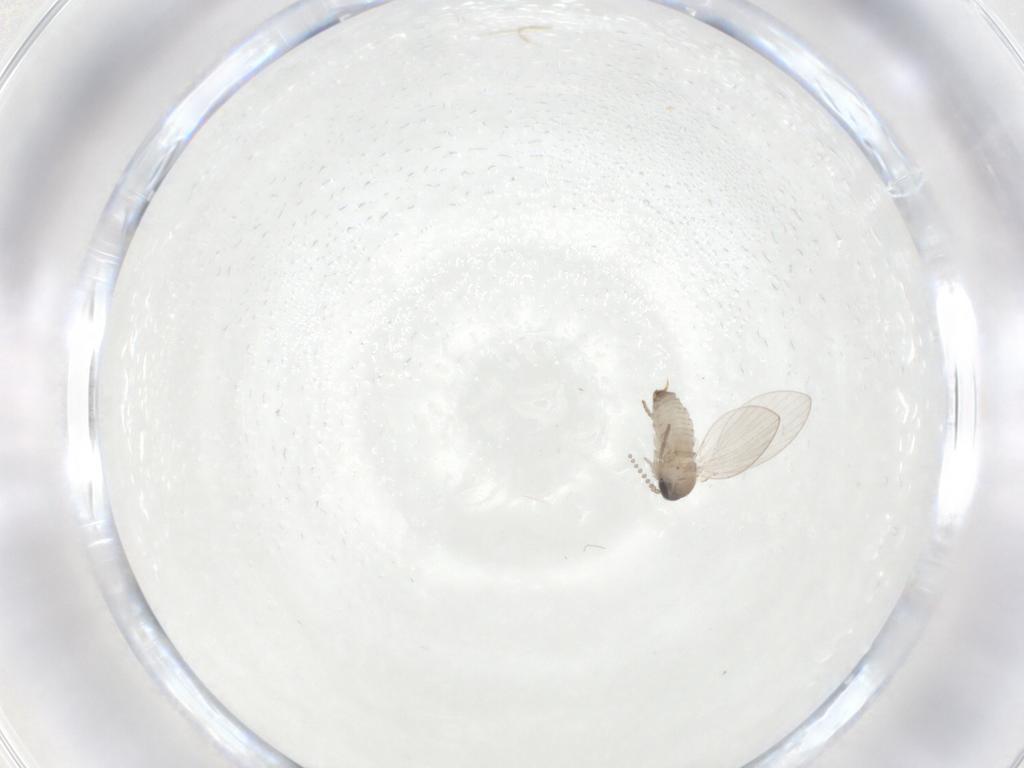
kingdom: Animalia
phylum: Arthropoda
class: Insecta
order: Diptera
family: Psychodidae
